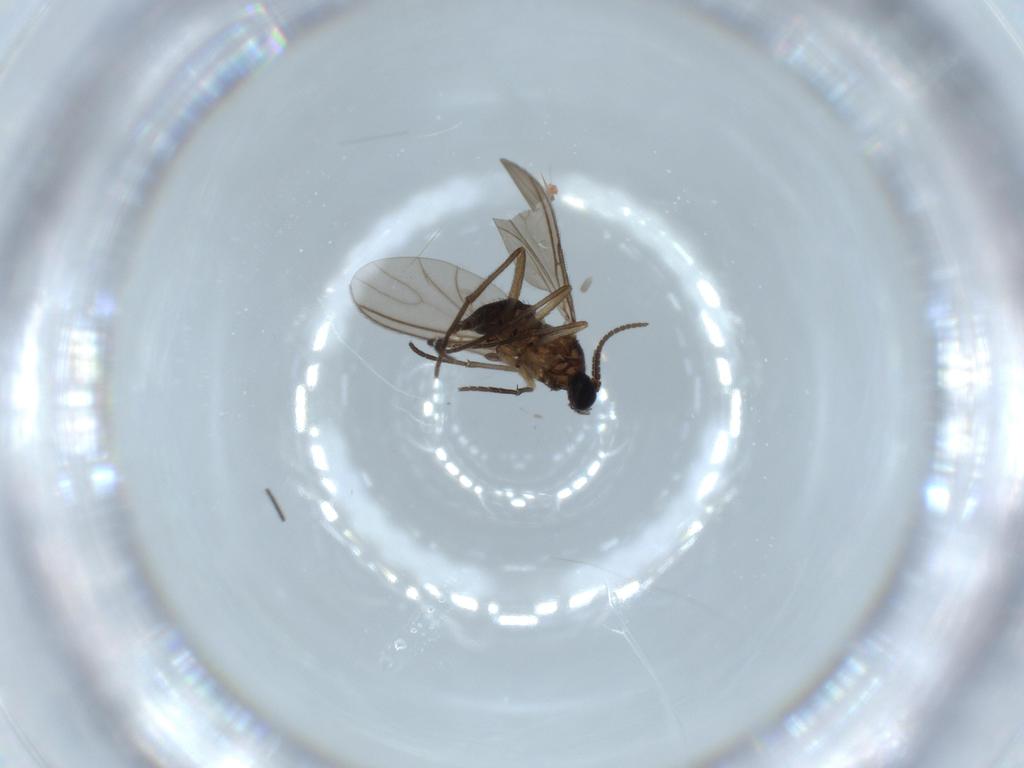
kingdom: Animalia
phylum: Arthropoda
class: Insecta
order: Diptera
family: Sciaridae
